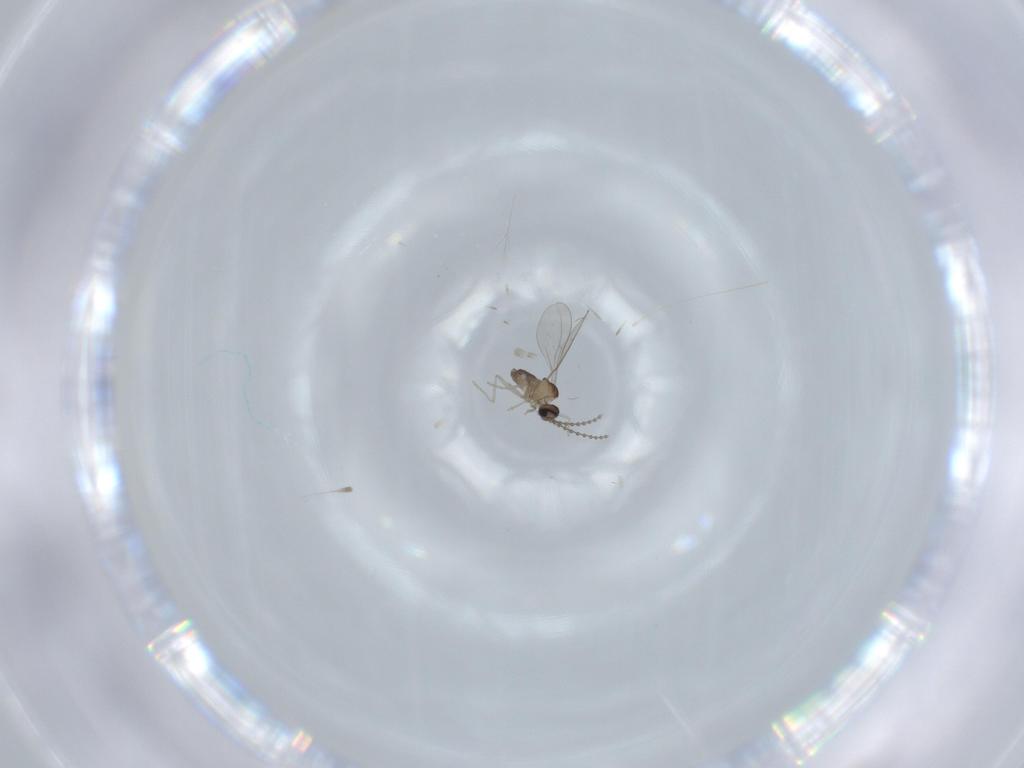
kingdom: Animalia
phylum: Arthropoda
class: Insecta
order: Diptera
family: Cecidomyiidae
